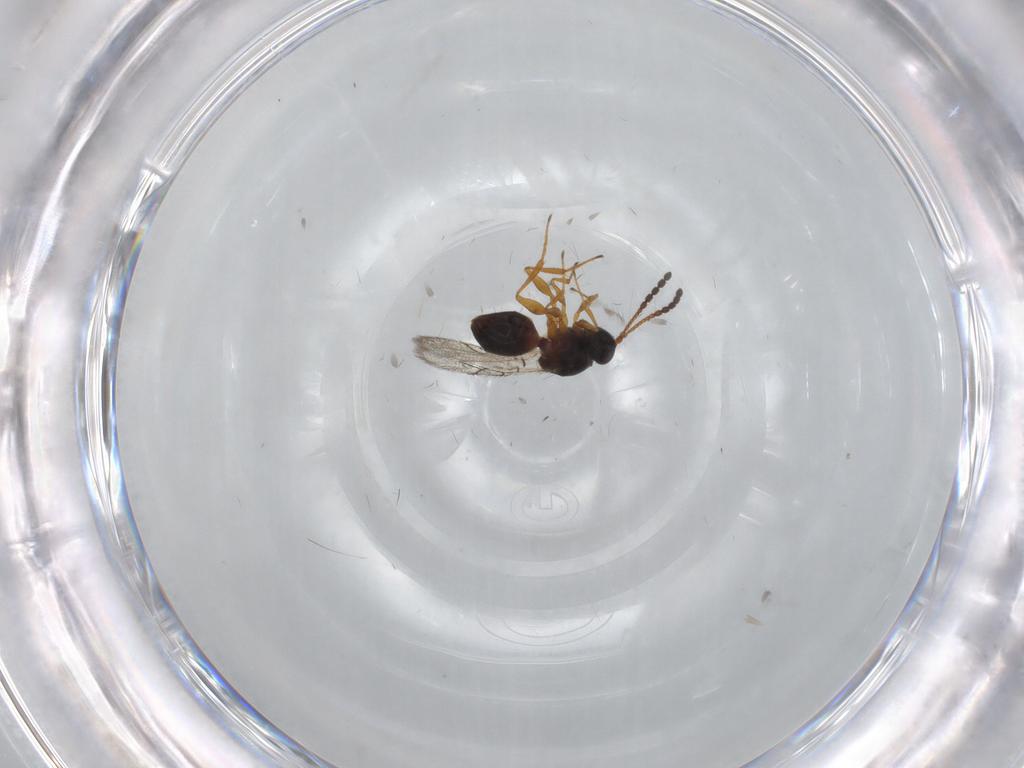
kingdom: Animalia
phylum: Arthropoda
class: Insecta
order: Hymenoptera
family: Figitidae
